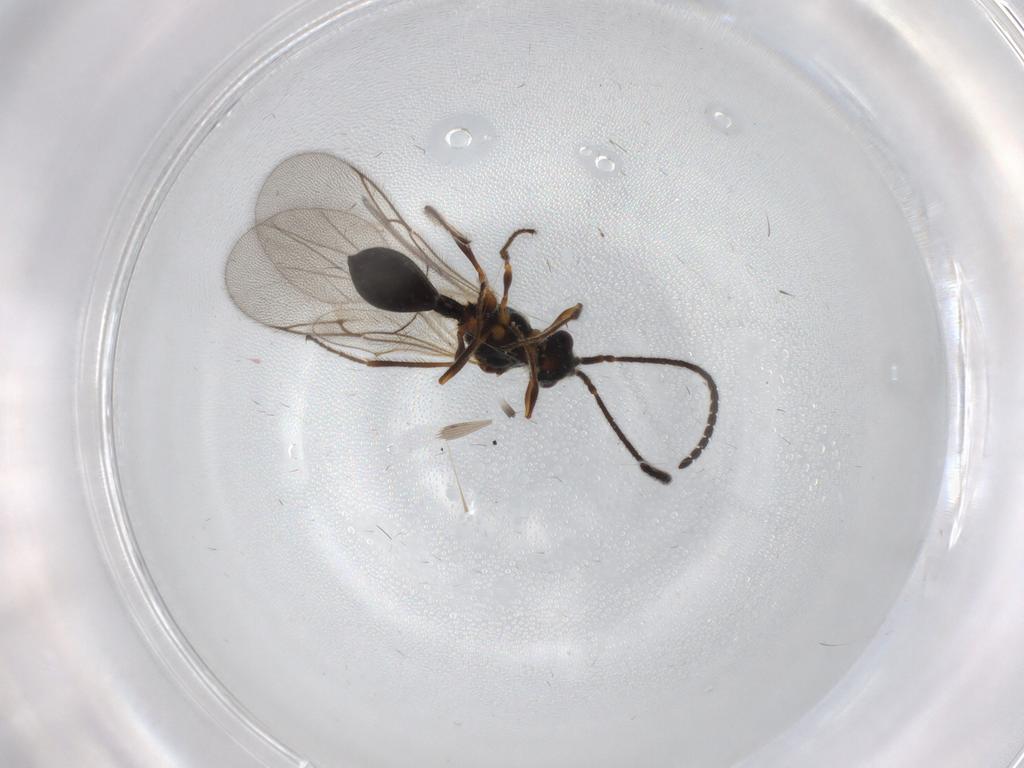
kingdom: Animalia
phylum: Arthropoda
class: Insecta
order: Hymenoptera
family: Diapriidae
